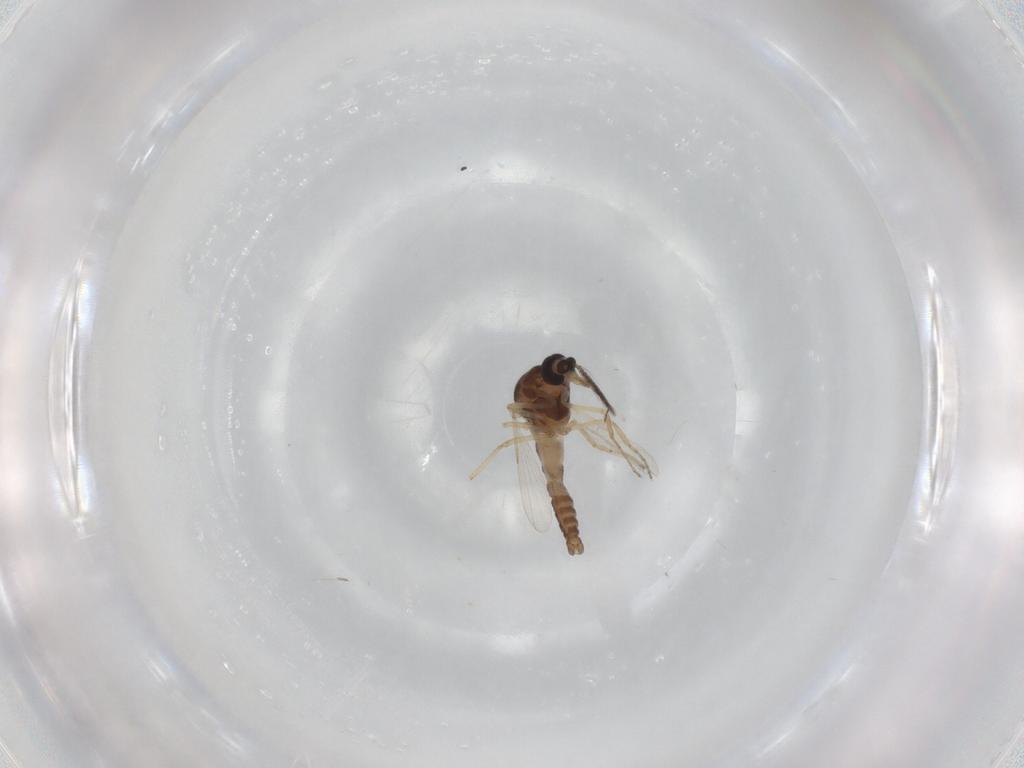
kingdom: Animalia
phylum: Arthropoda
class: Insecta
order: Diptera
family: Ceratopogonidae
